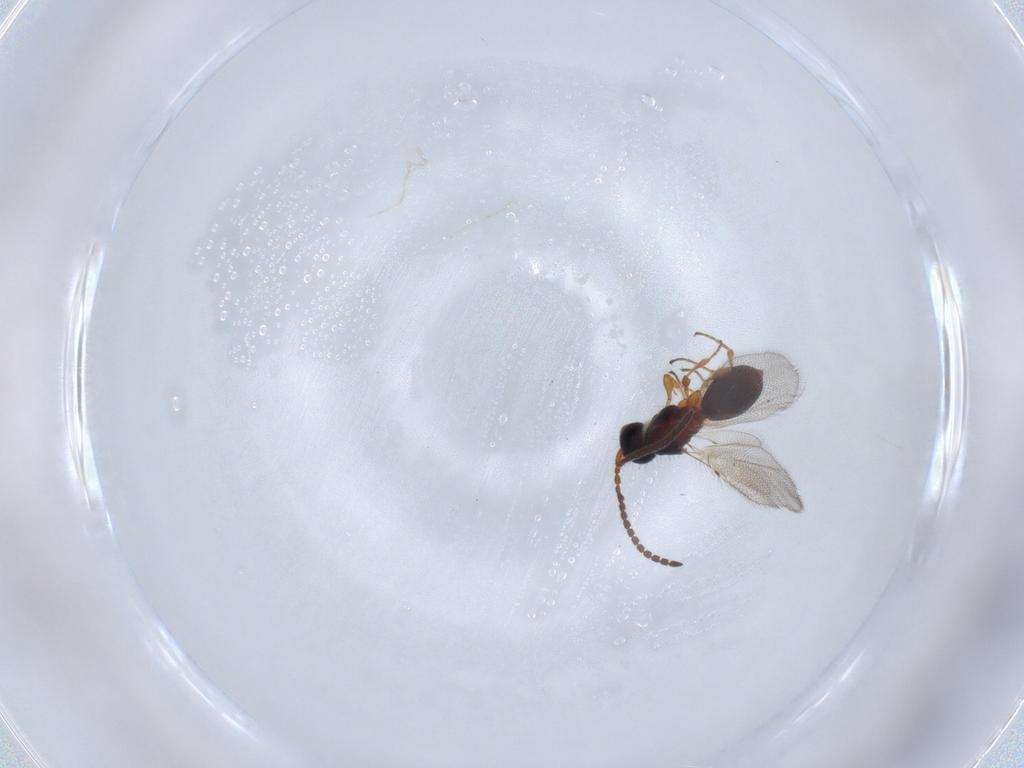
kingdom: Animalia
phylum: Arthropoda
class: Insecta
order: Hymenoptera
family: Diapriidae
